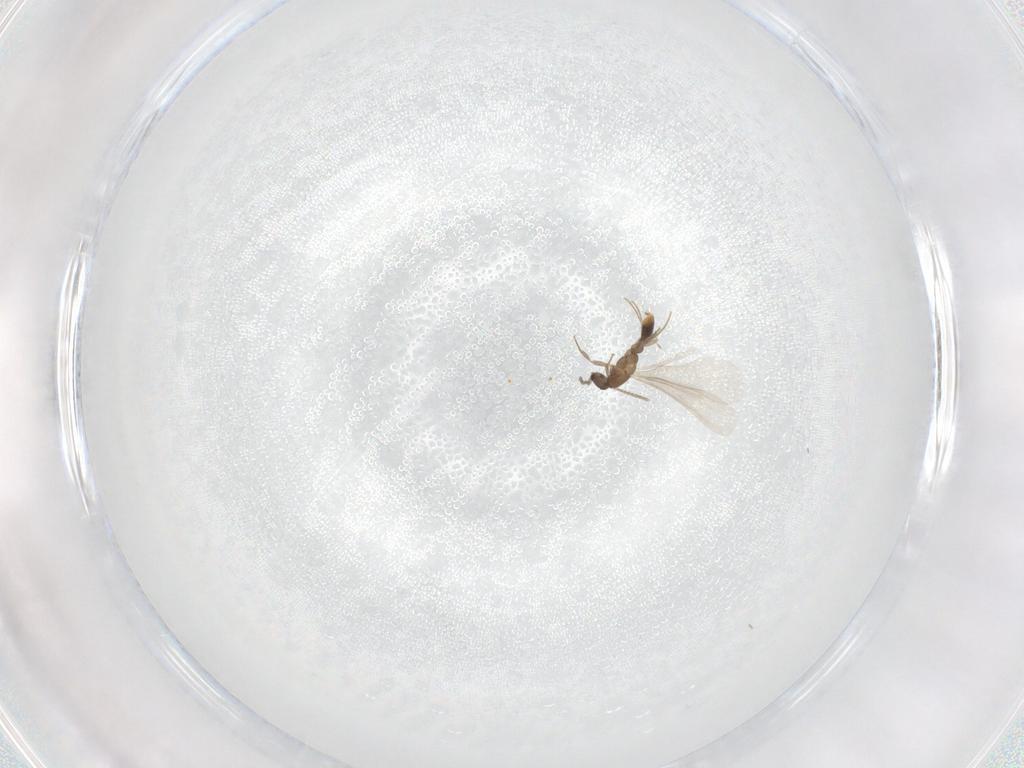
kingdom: Animalia
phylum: Arthropoda
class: Insecta
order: Hymenoptera
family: Formicidae
